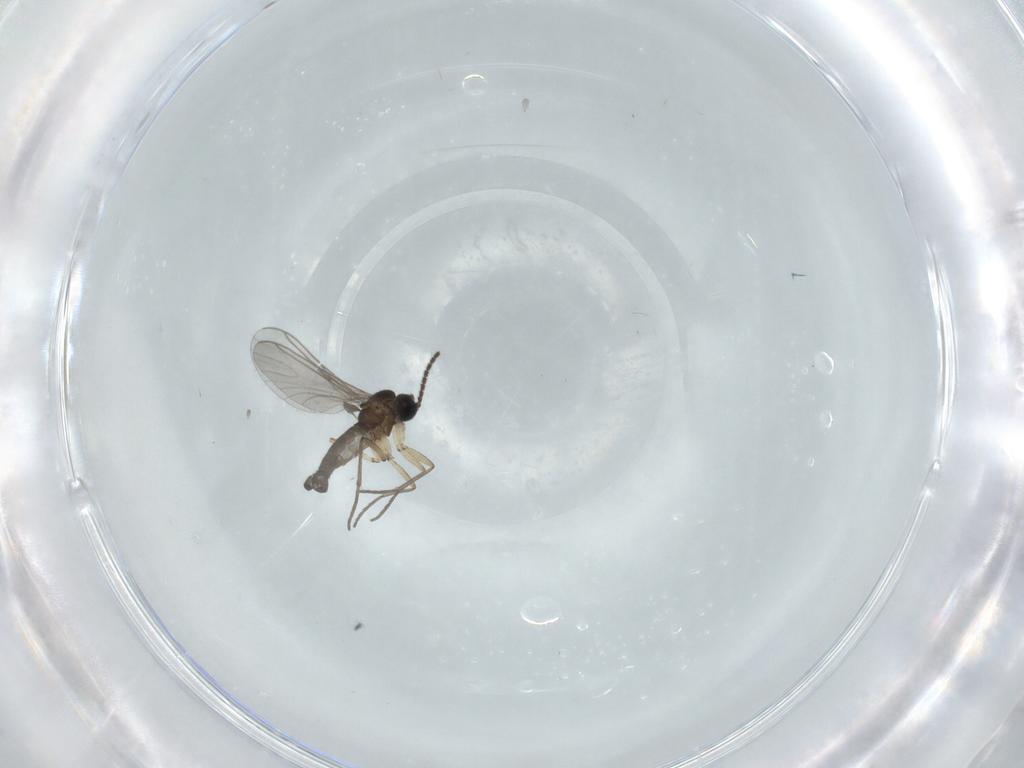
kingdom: Animalia
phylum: Arthropoda
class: Insecta
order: Diptera
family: Sciaridae
